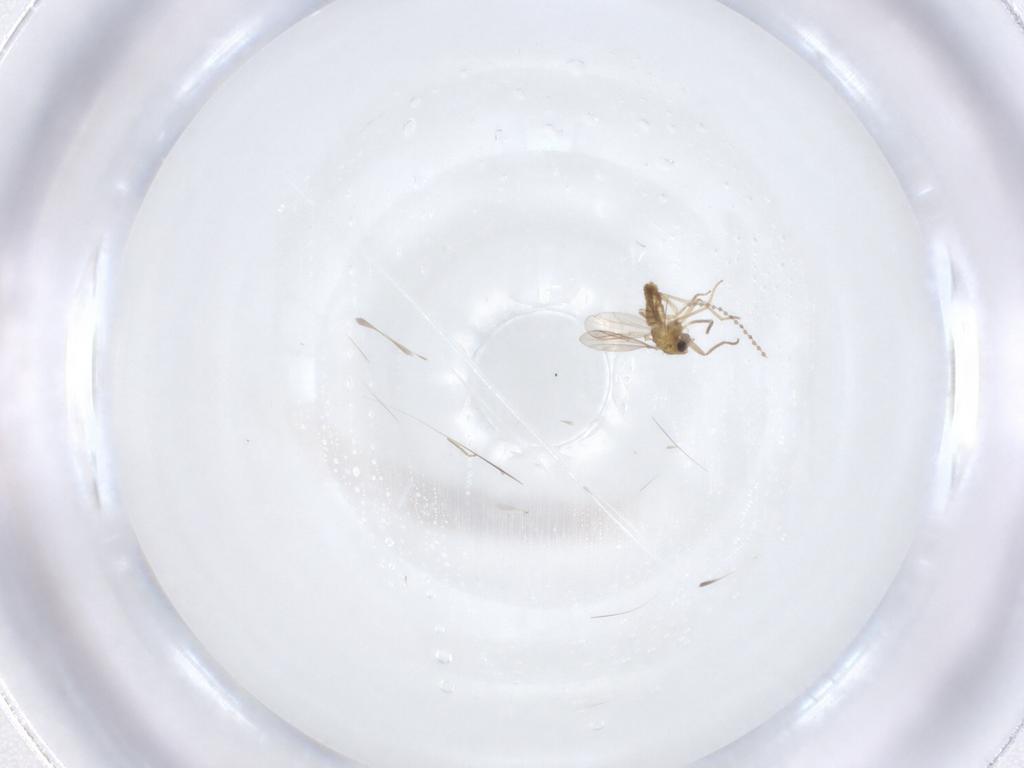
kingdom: Animalia
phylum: Arthropoda
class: Insecta
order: Diptera
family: Chironomidae
